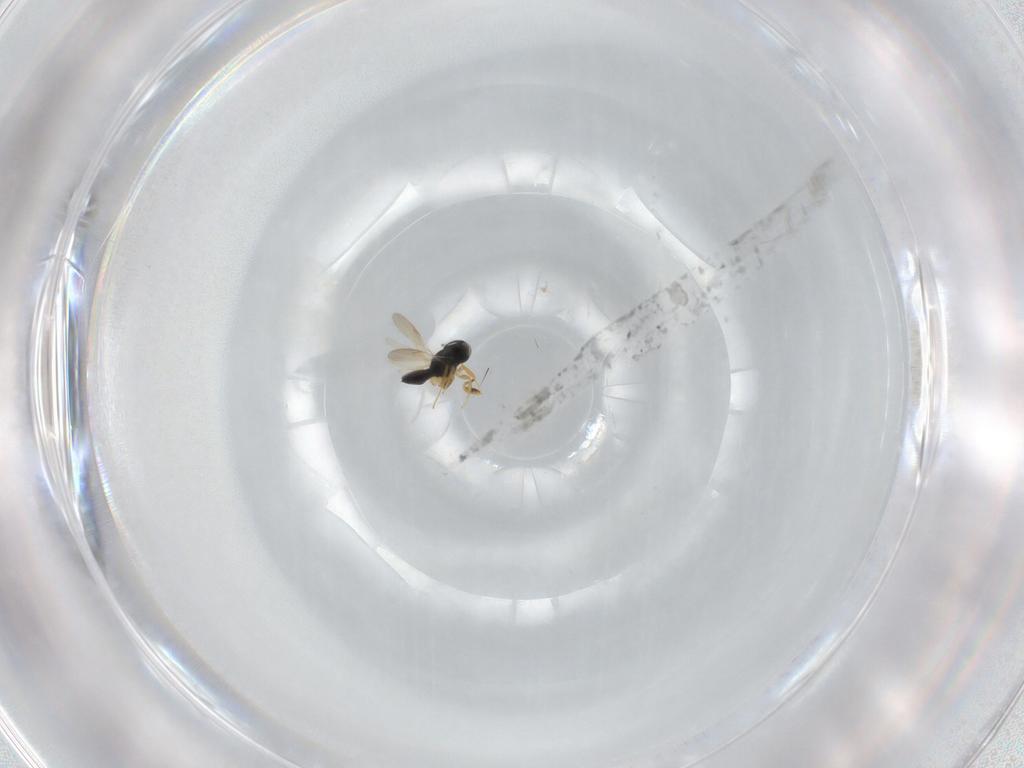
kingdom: Animalia
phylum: Arthropoda
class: Insecta
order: Hymenoptera
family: Scelionidae
